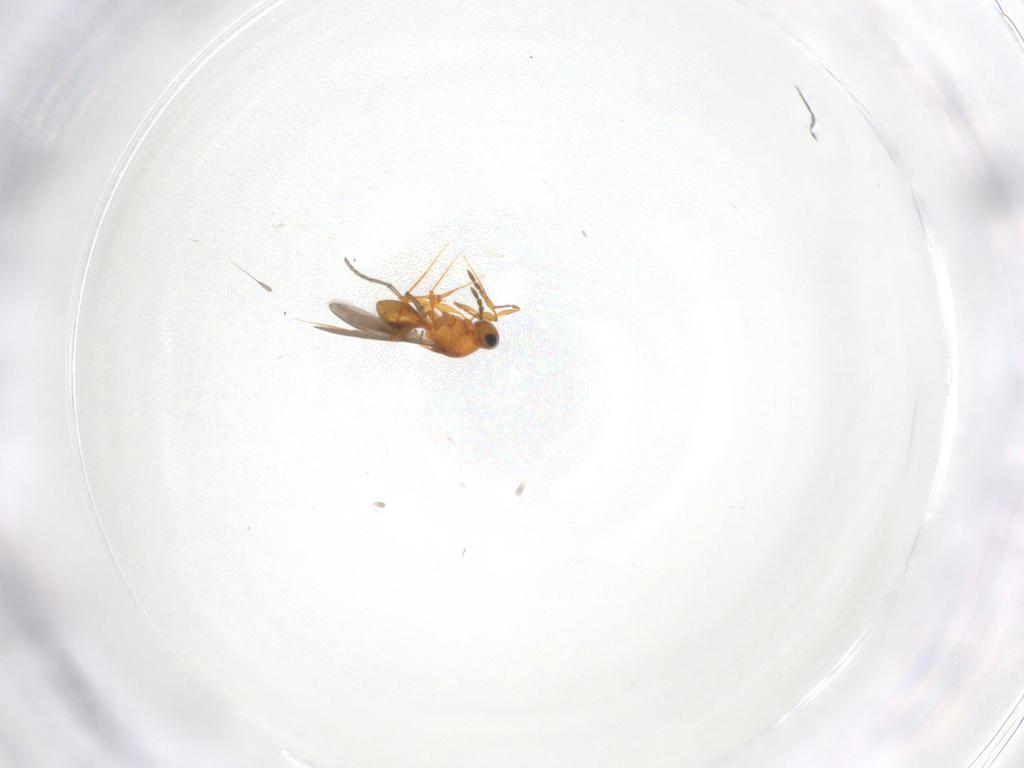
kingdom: Animalia
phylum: Arthropoda
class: Insecta
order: Hymenoptera
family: Platygastridae
